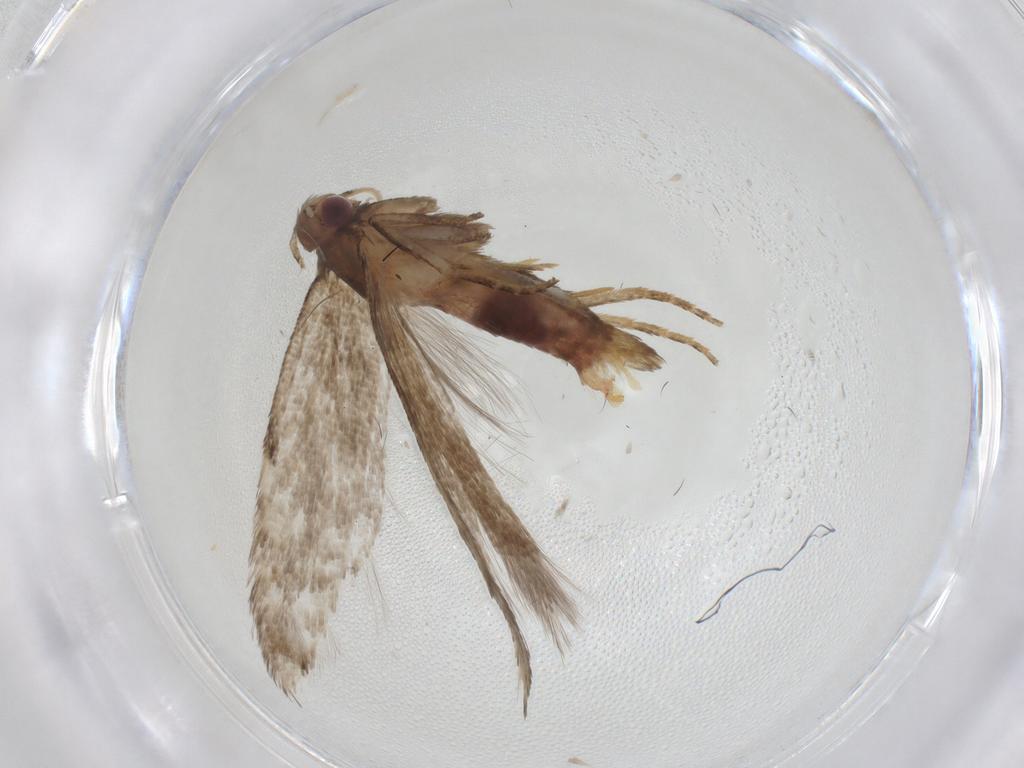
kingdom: Animalia
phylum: Arthropoda
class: Insecta
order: Lepidoptera
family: Gelechiidae
